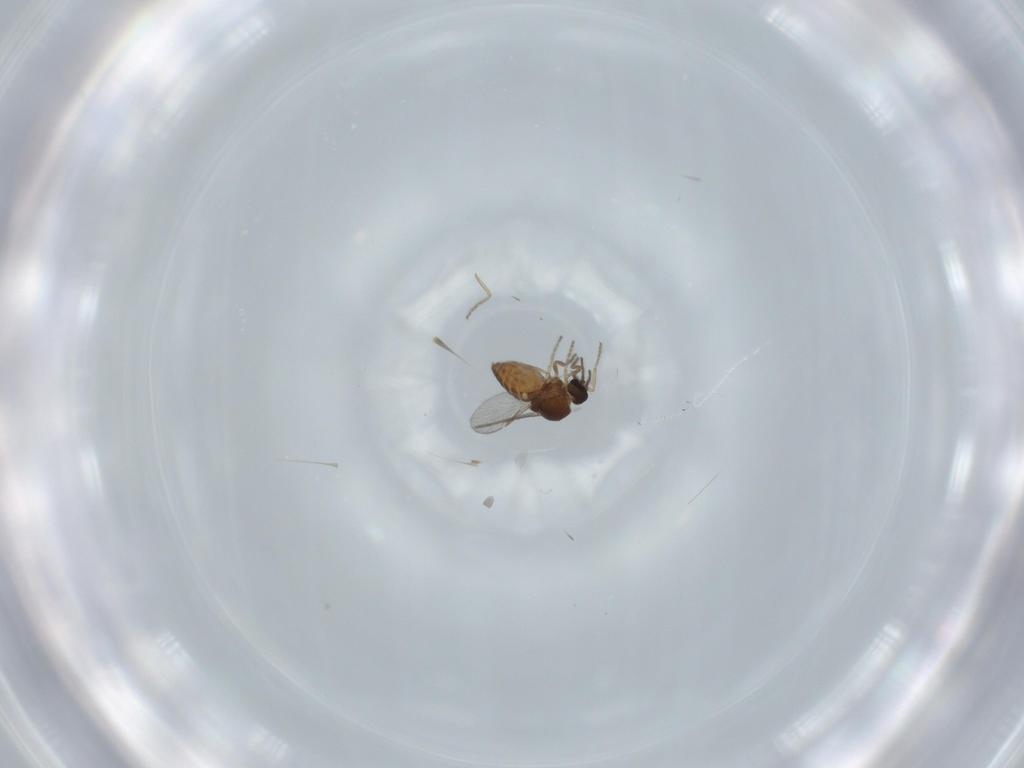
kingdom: Animalia
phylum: Arthropoda
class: Insecta
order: Diptera
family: Ceratopogonidae
